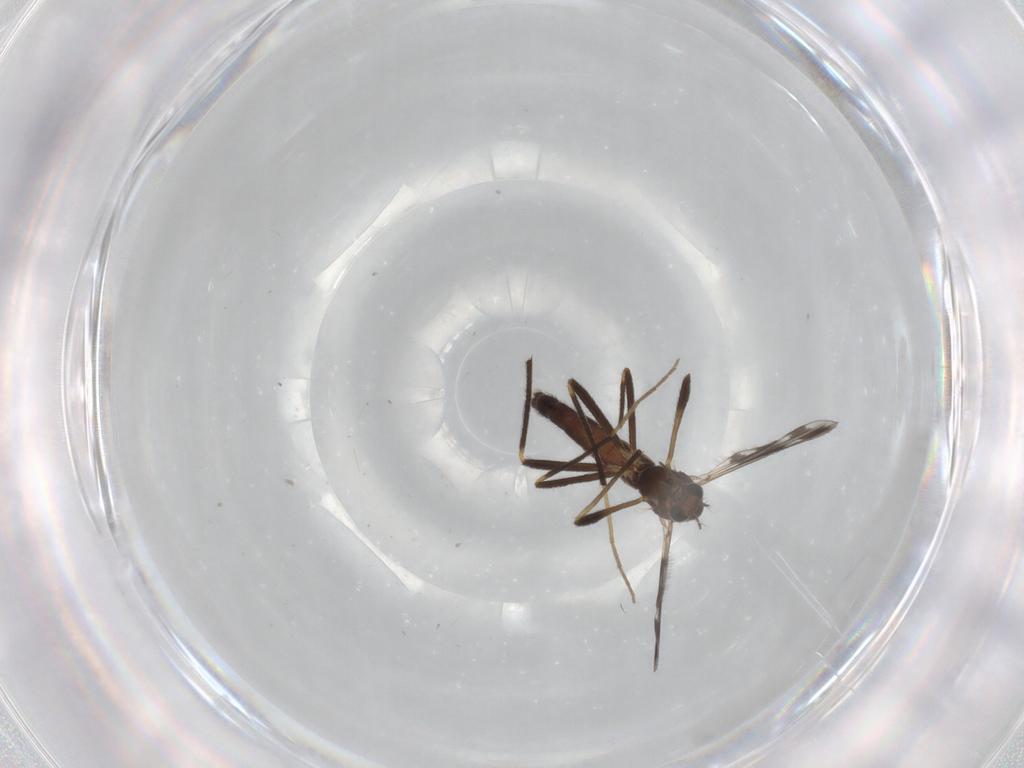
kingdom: Animalia
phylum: Arthropoda
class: Insecta
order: Diptera
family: Chironomidae
